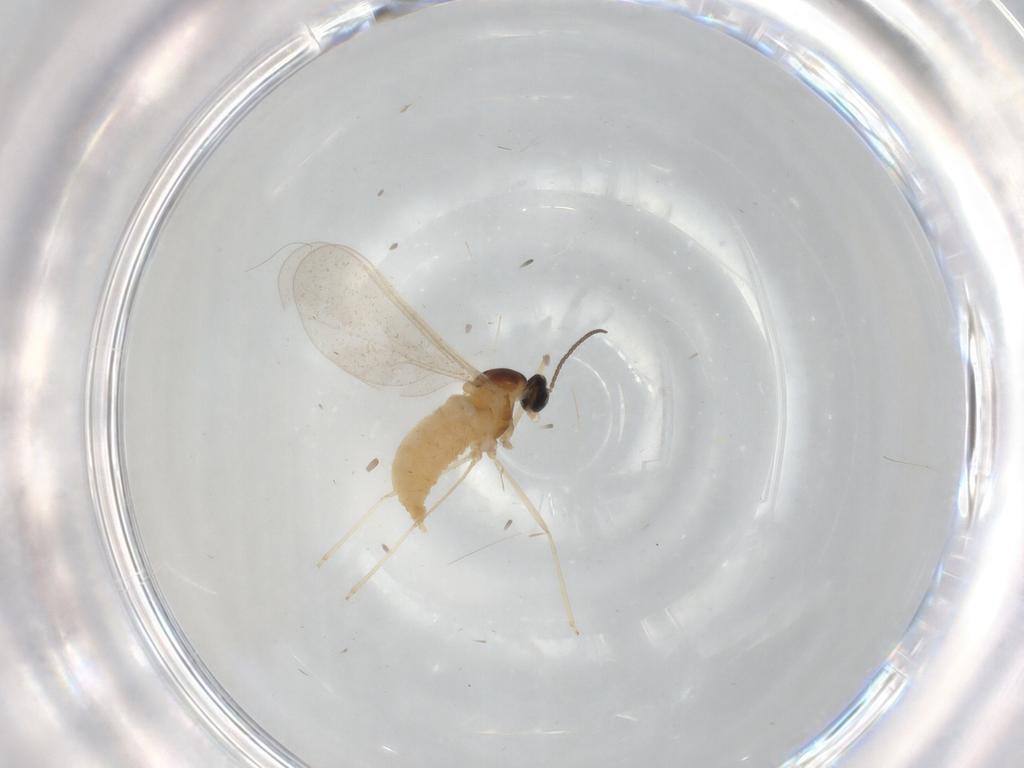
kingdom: Animalia
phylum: Arthropoda
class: Insecta
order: Diptera
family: Cecidomyiidae
